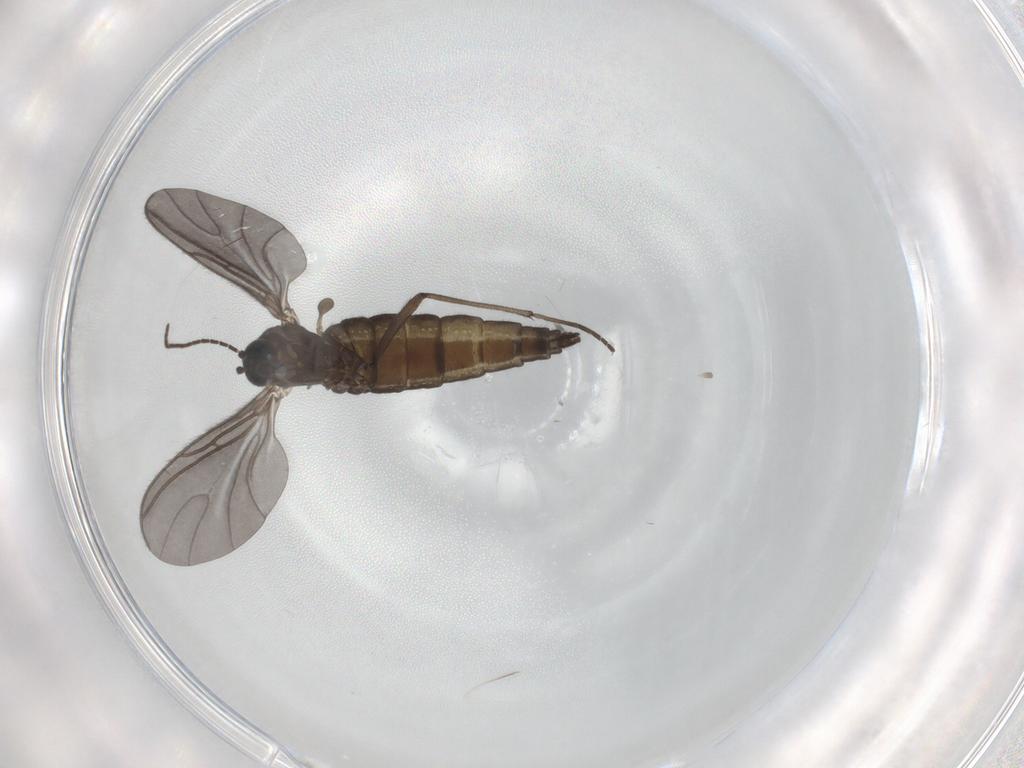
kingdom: Animalia
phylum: Arthropoda
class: Insecta
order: Diptera
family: Sciaridae
